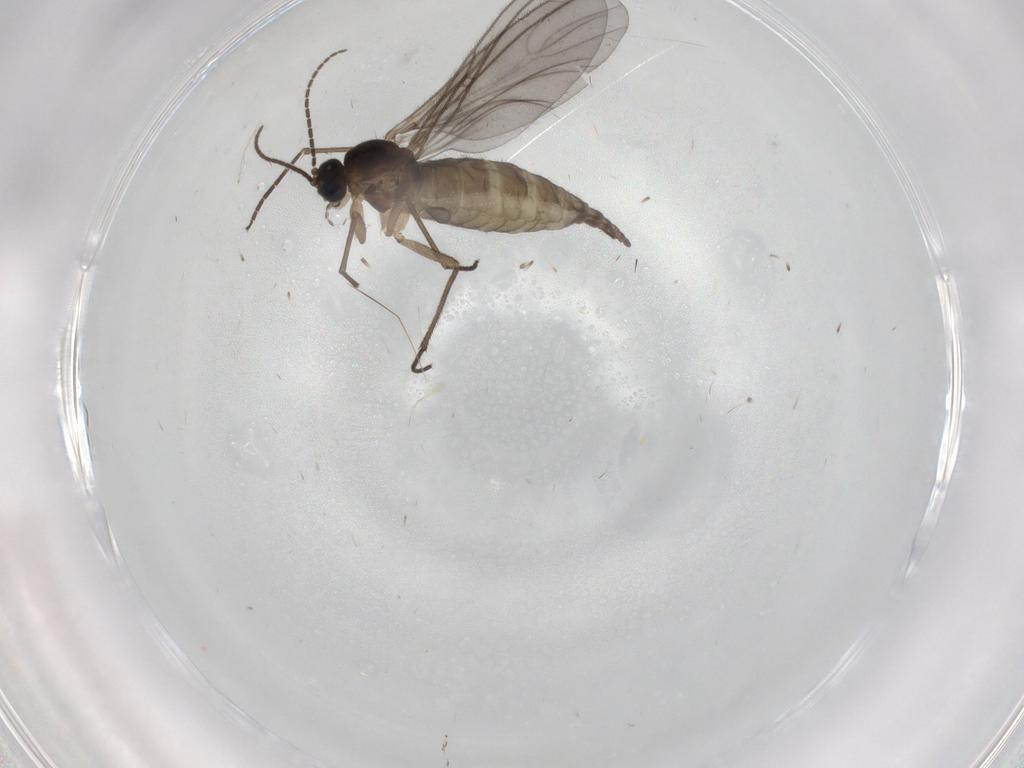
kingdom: Animalia
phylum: Arthropoda
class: Insecta
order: Diptera
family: Sciaridae
